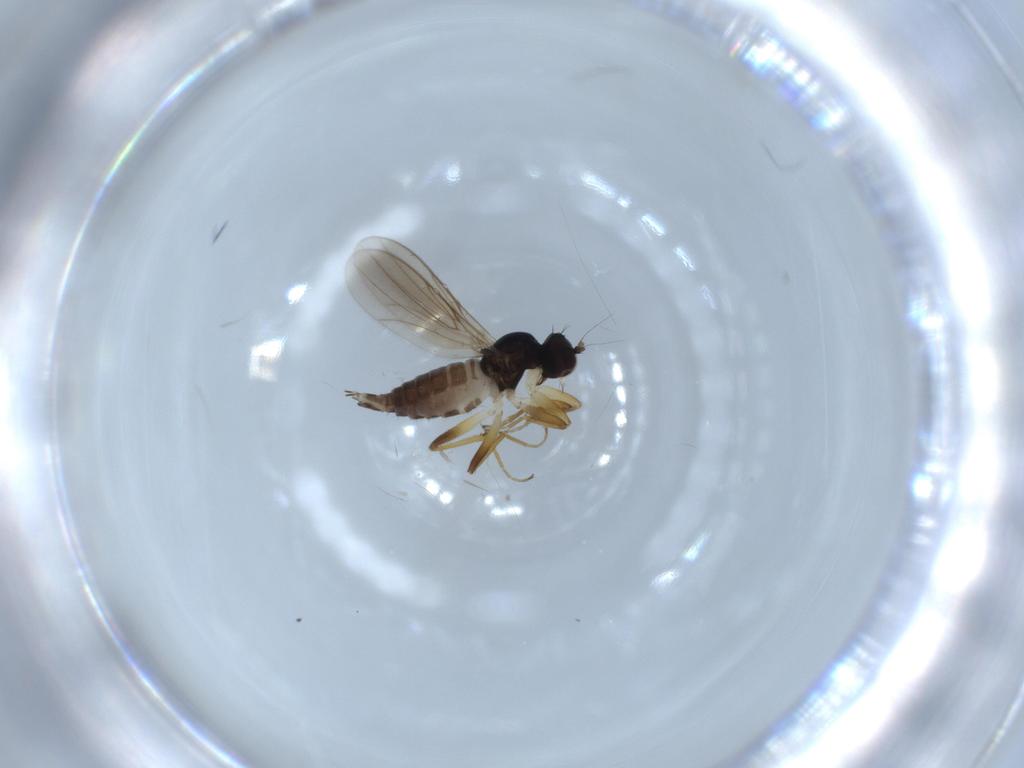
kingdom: Animalia
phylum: Arthropoda
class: Insecta
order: Diptera
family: Hybotidae
